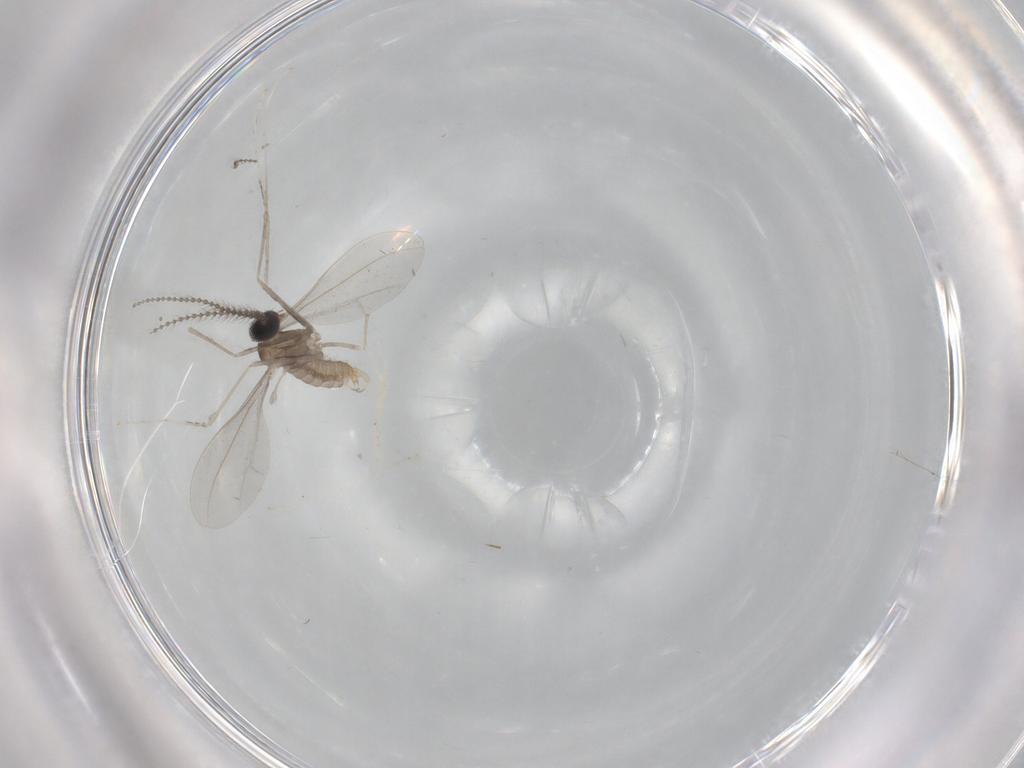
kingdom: Animalia
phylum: Arthropoda
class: Insecta
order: Diptera
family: Cecidomyiidae
